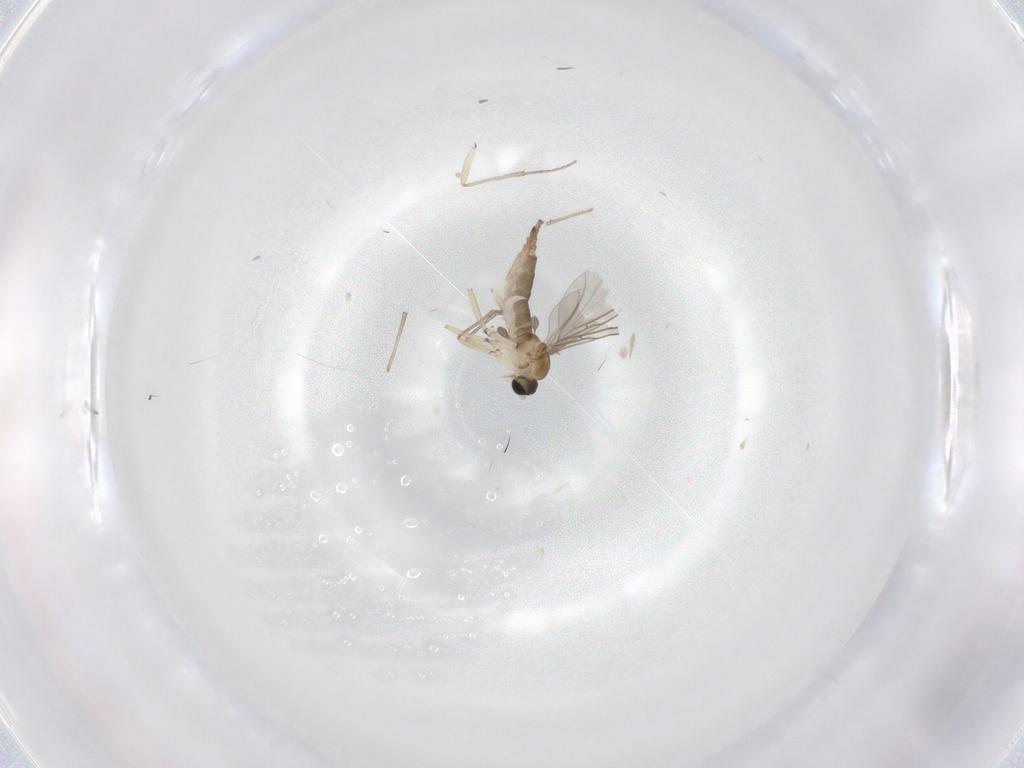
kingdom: Animalia
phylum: Arthropoda
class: Insecta
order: Diptera
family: Sciaridae
